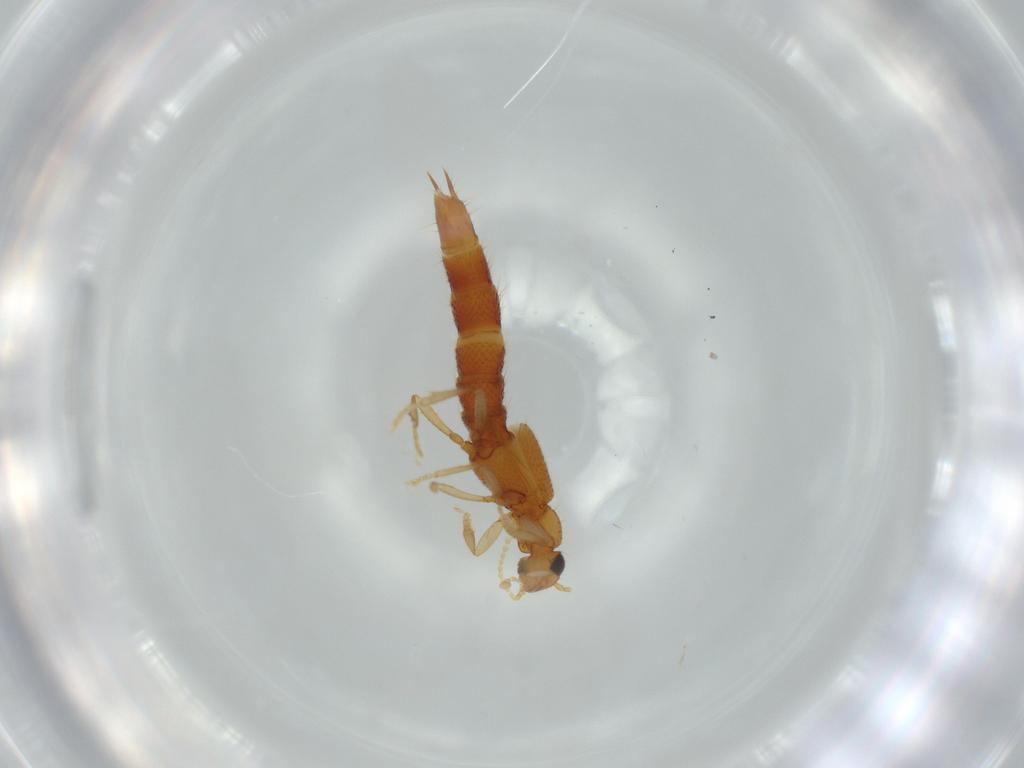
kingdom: Animalia
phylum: Arthropoda
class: Insecta
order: Coleoptera
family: Staphylinidae
